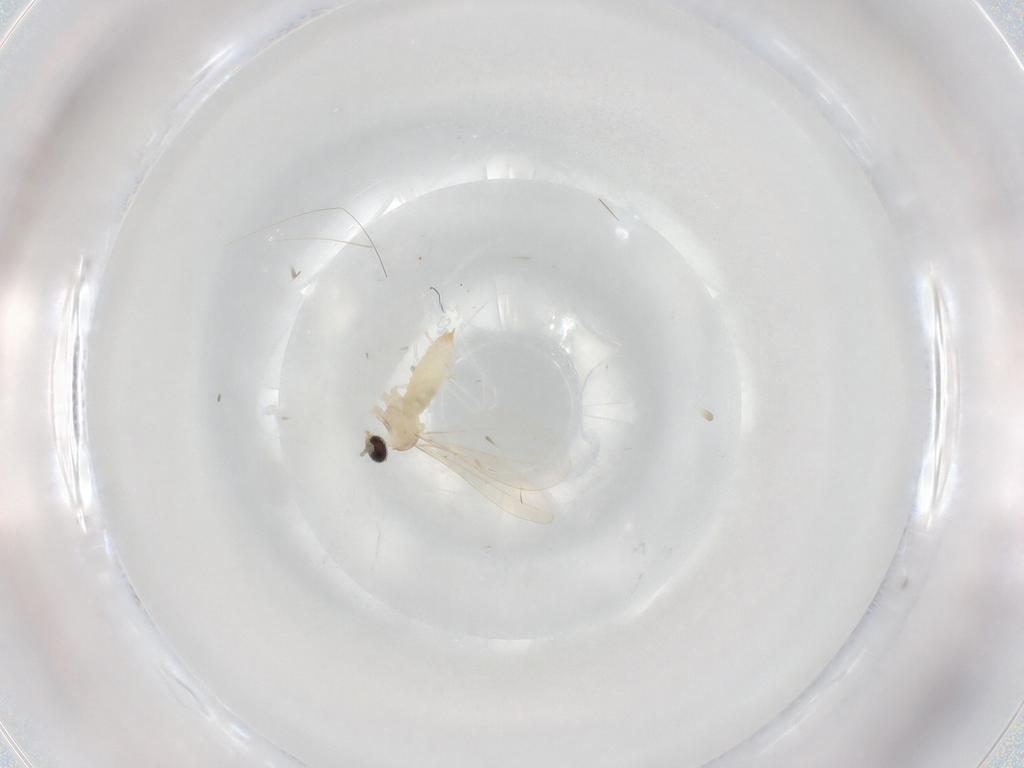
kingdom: Animalia
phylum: Arthropoda
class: Insecta
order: Diptera
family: Cecidomyiidae
